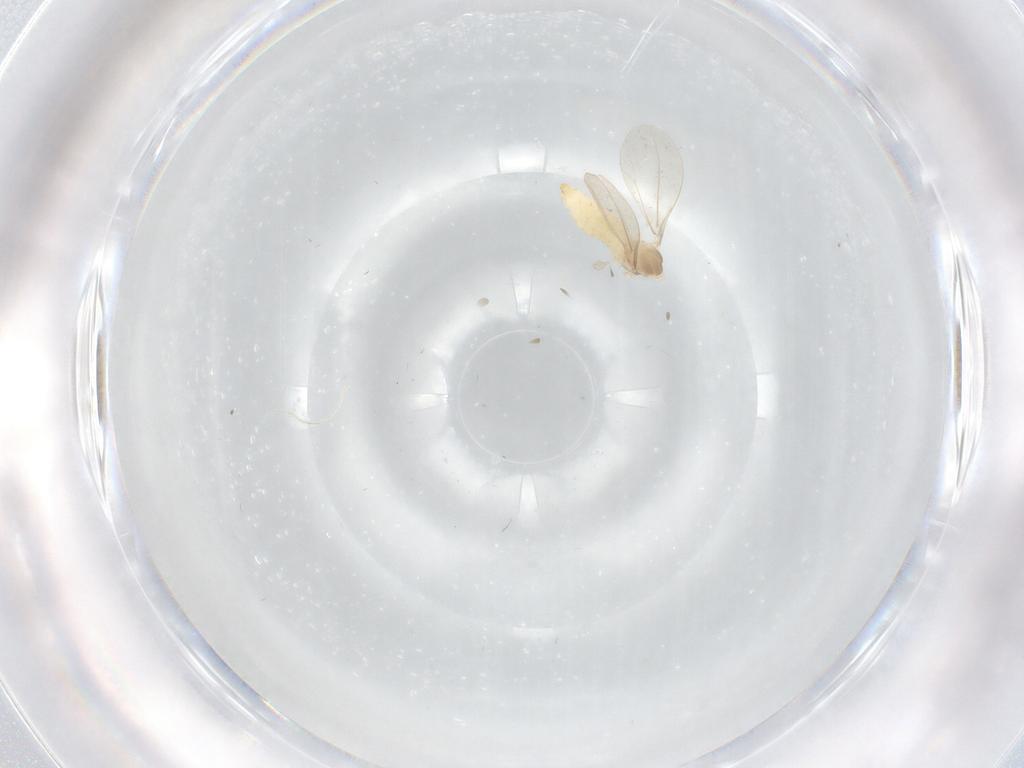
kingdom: Animalia
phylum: Arthropoda
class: Insecta
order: Diptera
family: Cecidomyiidae
